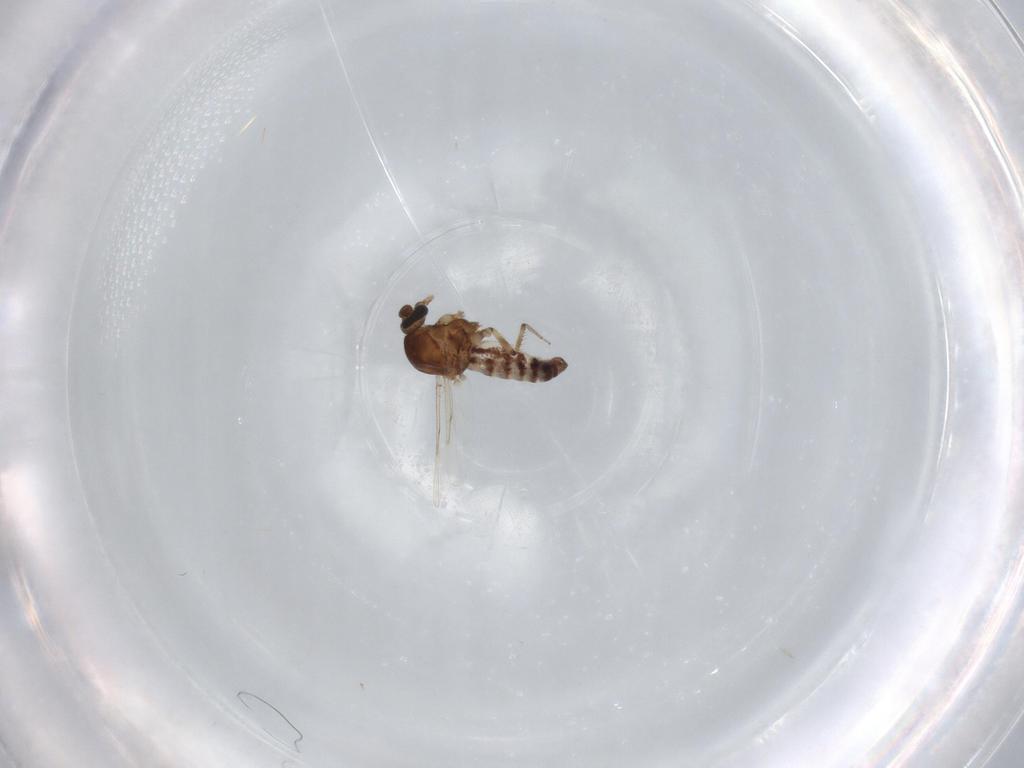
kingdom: Animalia
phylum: Arthropoda
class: Insecta
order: Diptera
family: Ceratopogonidae
